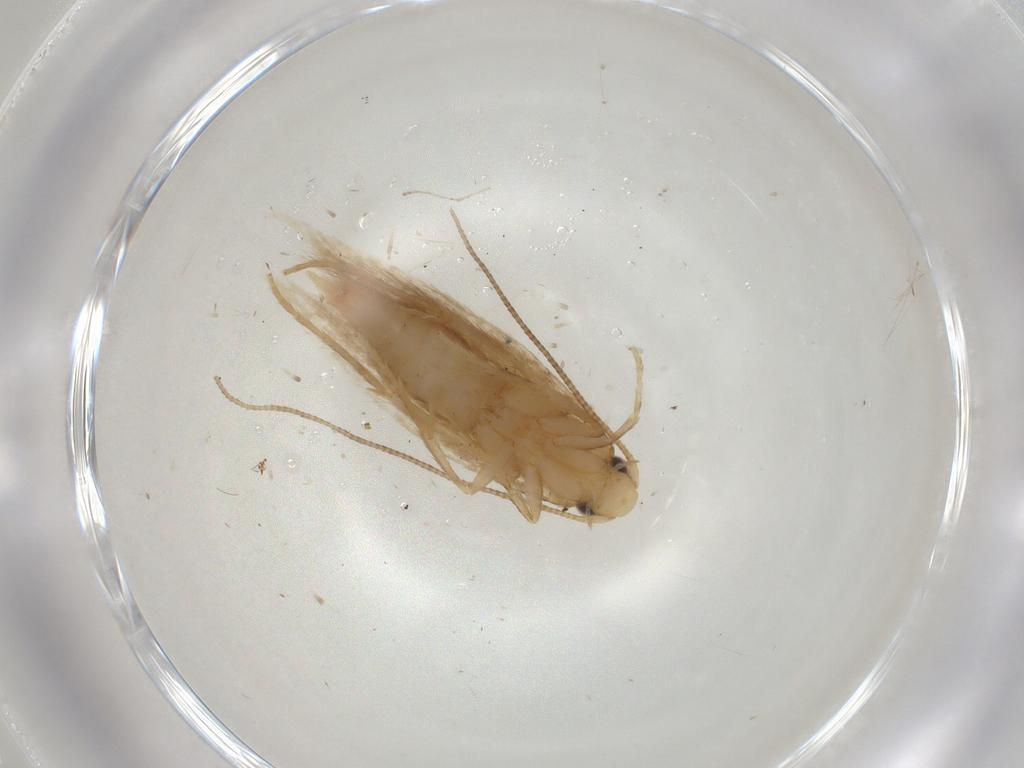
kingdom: Animalia
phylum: Arthropoda
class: Insecta
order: Lepidoptera
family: Tineidae
